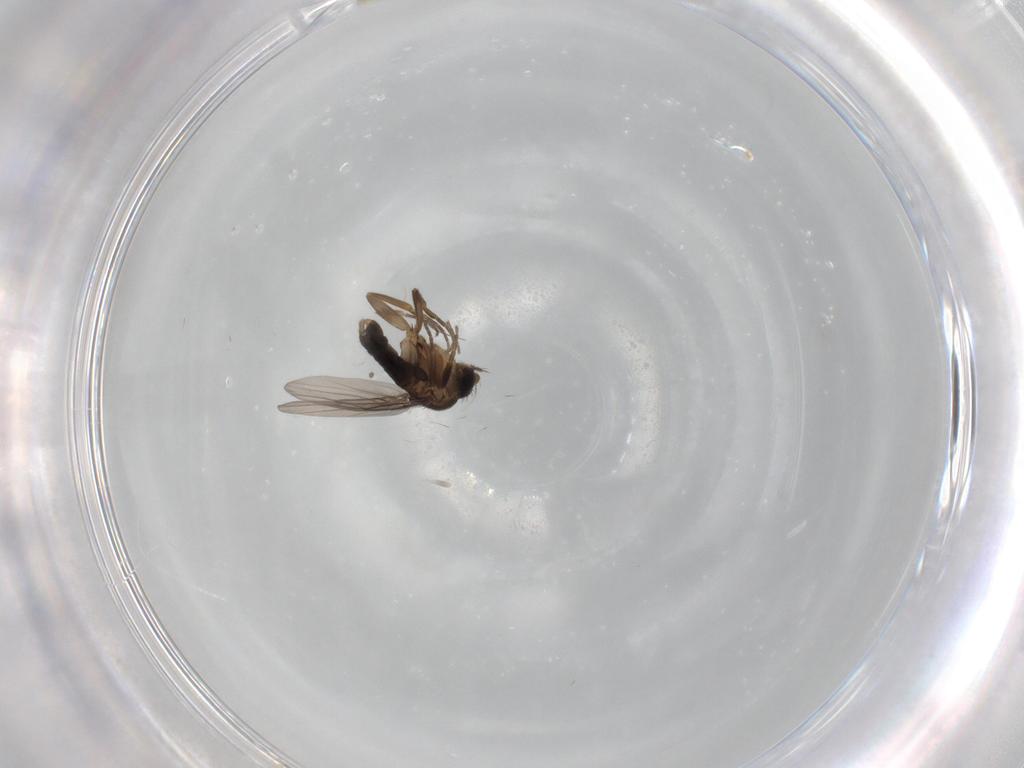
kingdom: Animalia
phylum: Arthropoda
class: Insecta
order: Diptera
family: Phoridae
